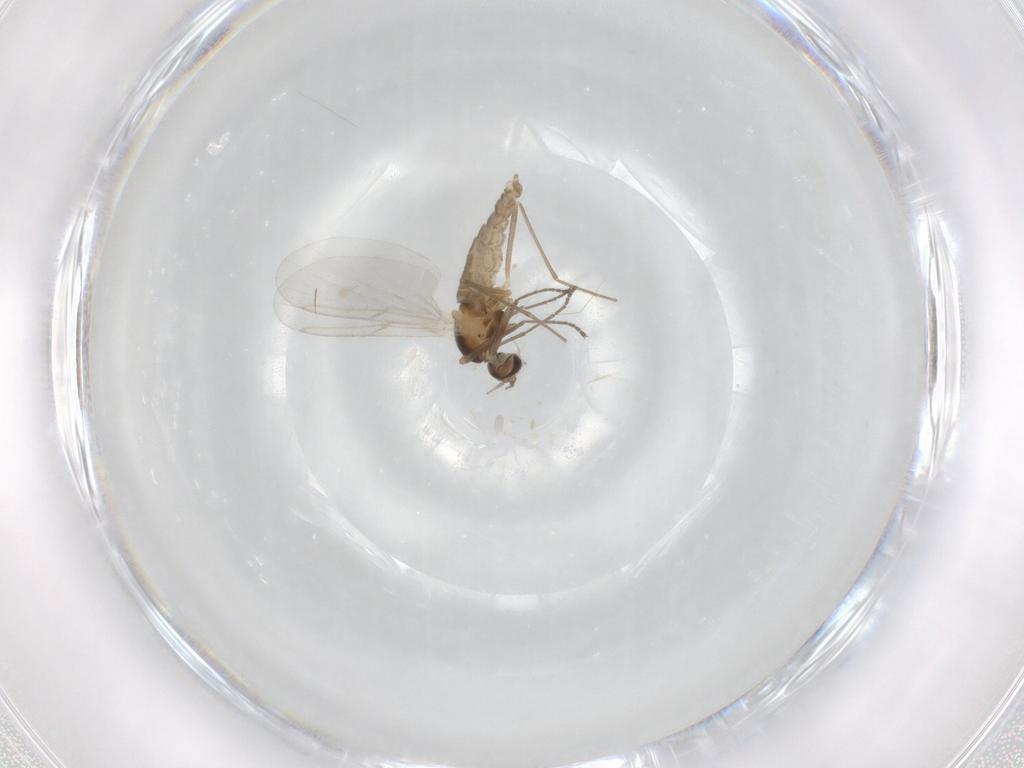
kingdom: Animalia
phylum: Arthropoda
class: Insecta
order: Diptera
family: Cecidomyiidae
